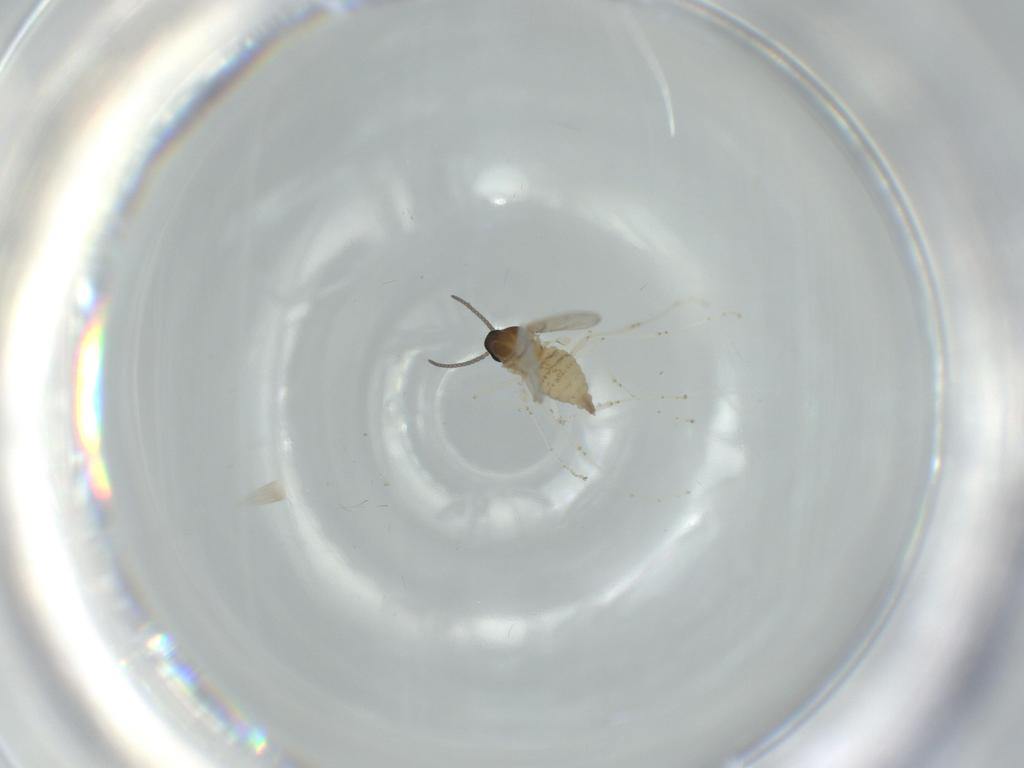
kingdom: Animalia
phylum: Arthropoda
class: Insecta
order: Diptera
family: Cecidomyiidae
